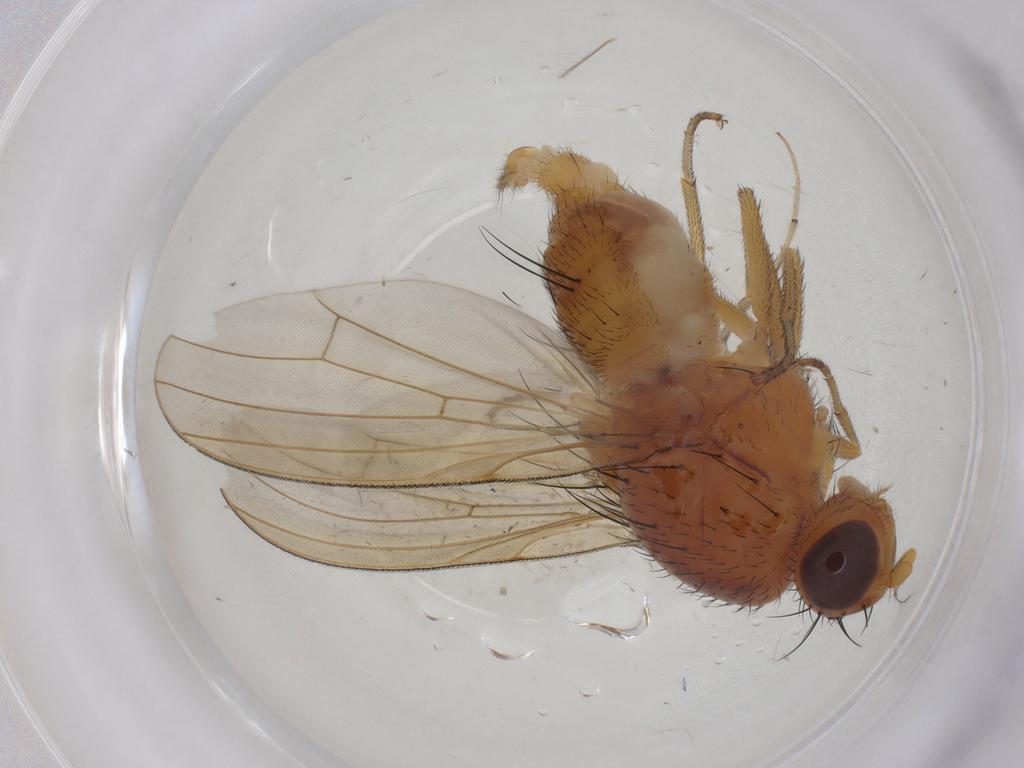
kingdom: Animalia
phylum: Arthropoda
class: Insecta
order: Diptera
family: Cecidomyiidae
